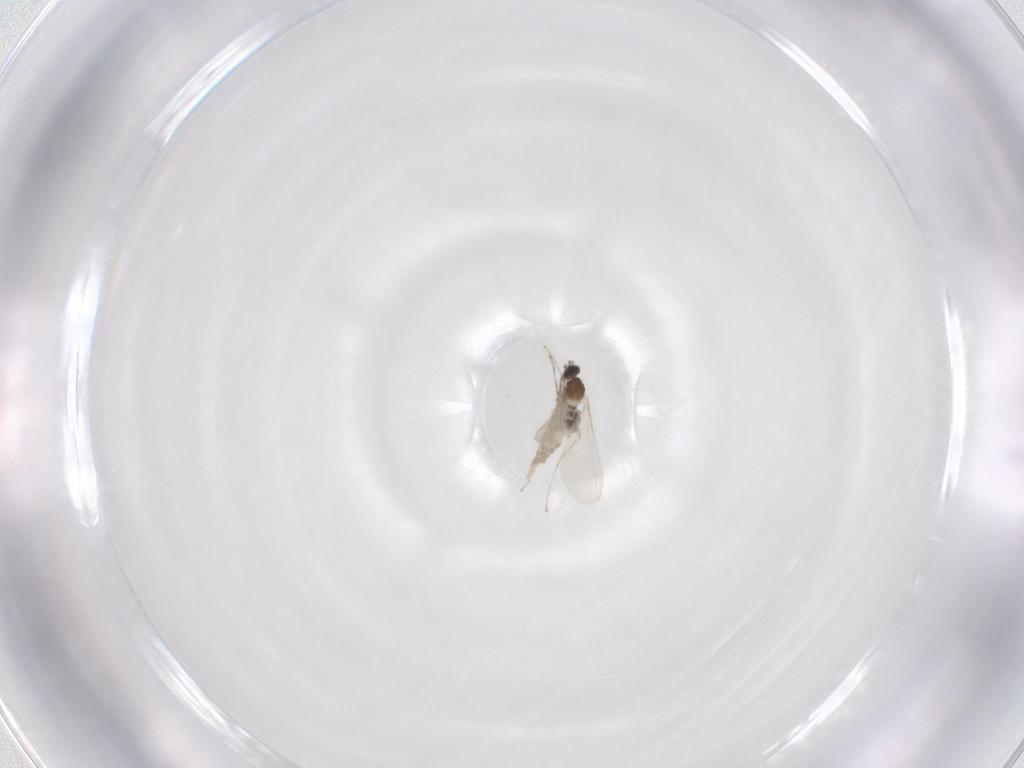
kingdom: Animalia
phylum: Arthropoda
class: Insecta
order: Diptera
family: Cecidomyiidae
